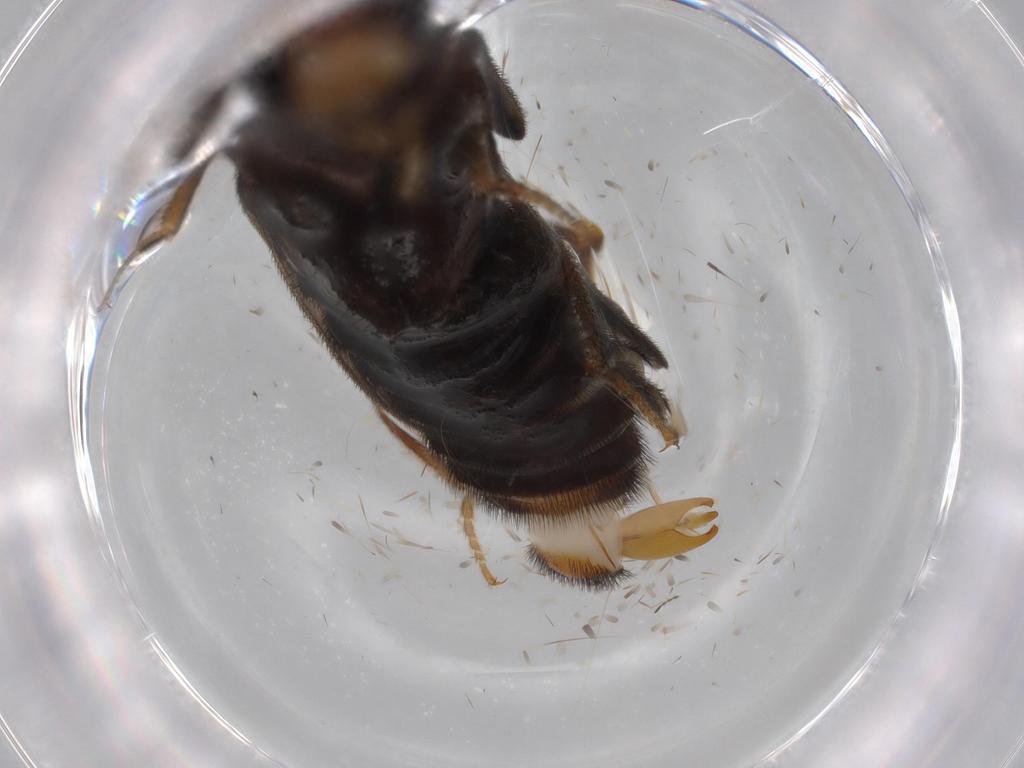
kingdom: Animalia
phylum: Arthropoda
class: Insecta
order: Coleoptera
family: Phengodidae
